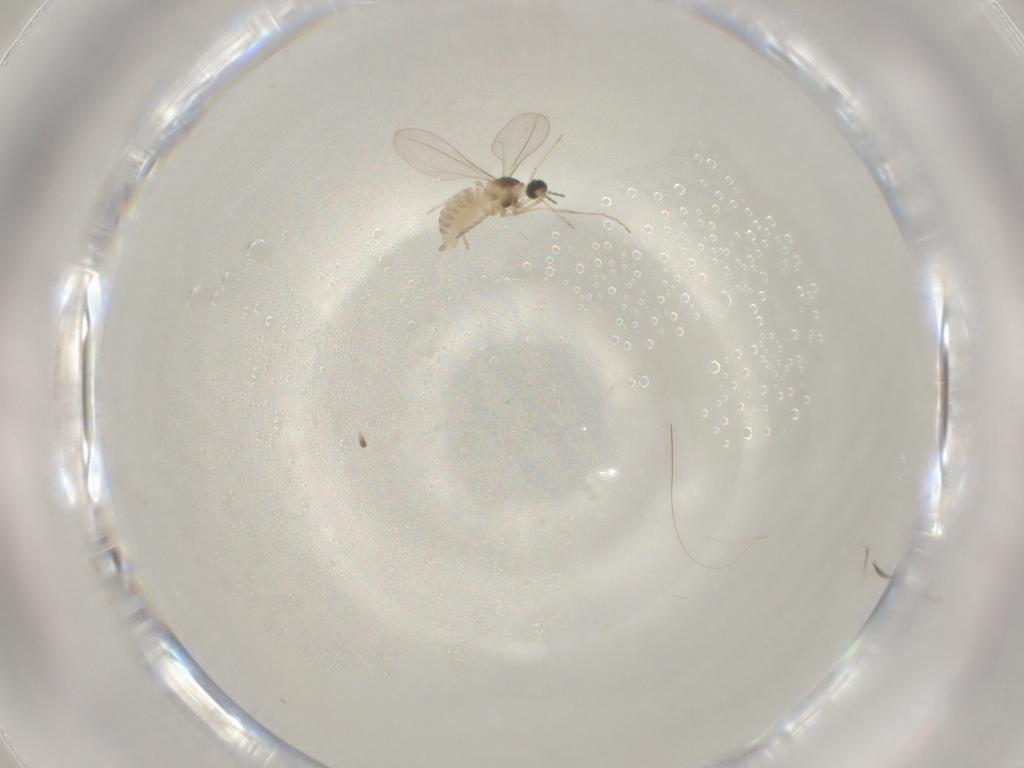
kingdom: Animalia
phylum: Arthropoda
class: Insecta
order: Diptera
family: Cecidomyiidae
